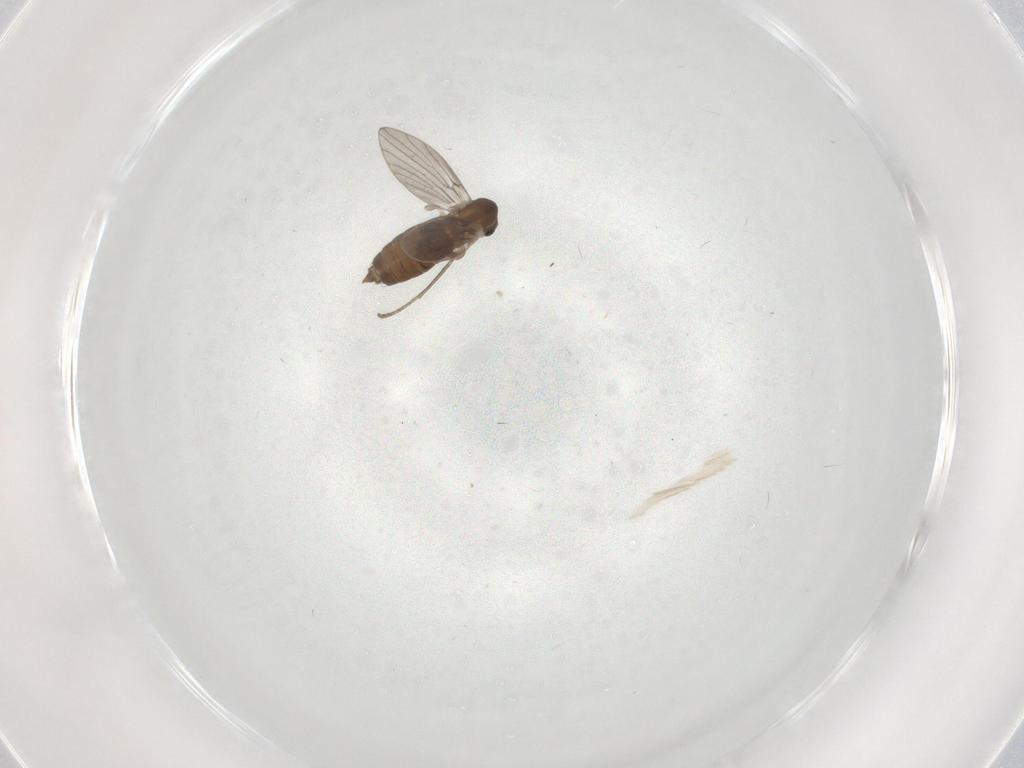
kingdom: Animalia
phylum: Arthropoda
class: Insecta
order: Diptera
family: Psychodidae
